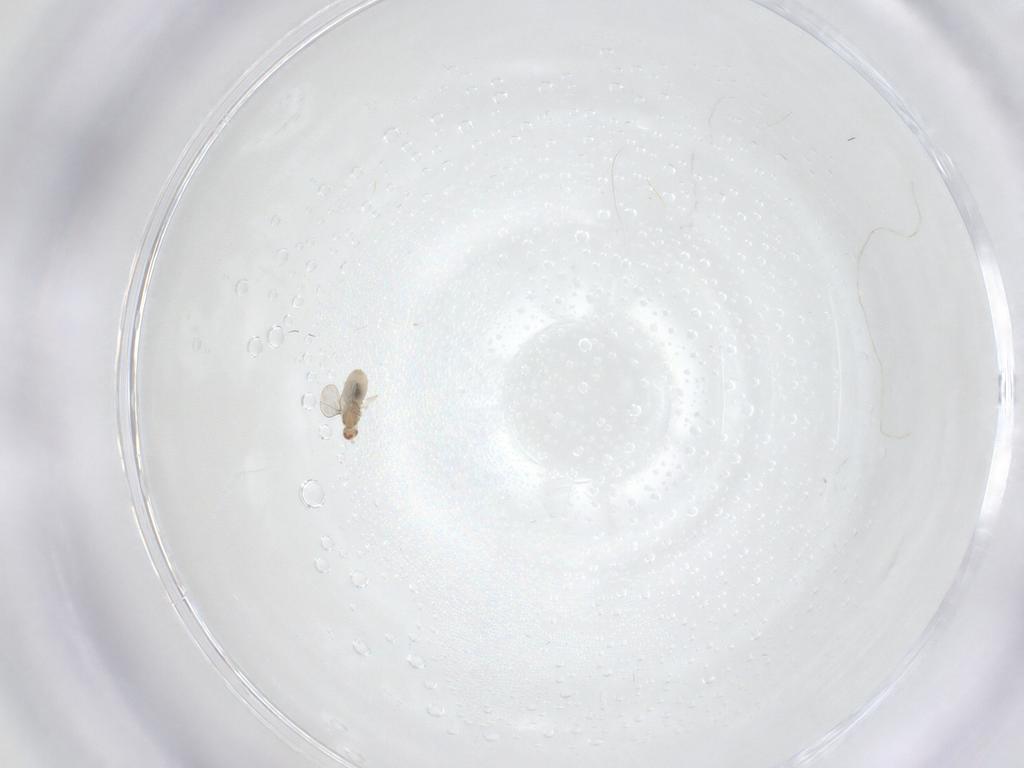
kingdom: Animalia
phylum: Arthropoda
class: Insecta
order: Diptera
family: Cecidomyiidae
